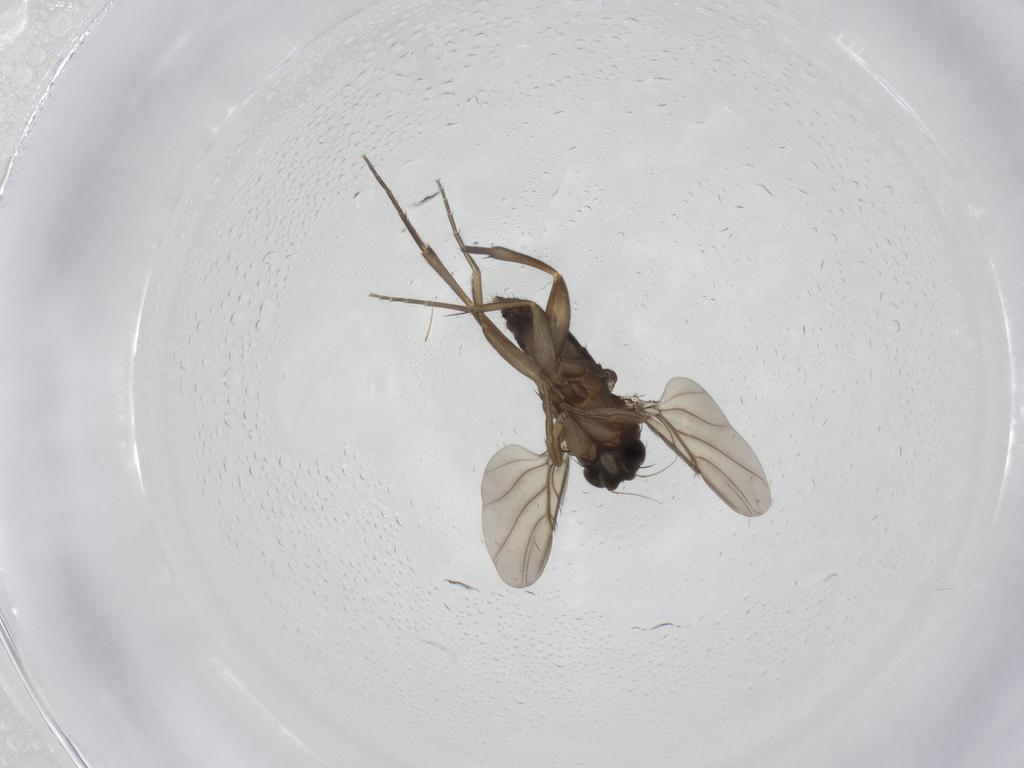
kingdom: Animalia
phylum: Arthropoda
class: Insecta
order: Diptera
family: Phoridae
